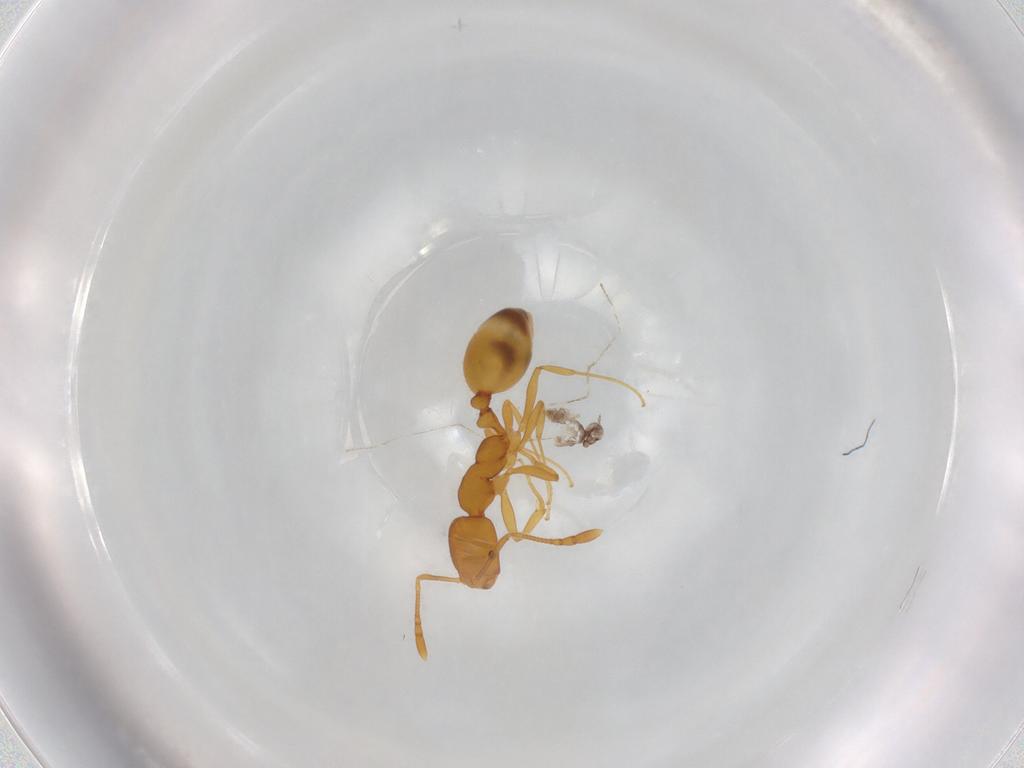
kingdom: Animalia
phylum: Arthropoda
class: Insecta
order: Hymenoptera
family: Formicidae
